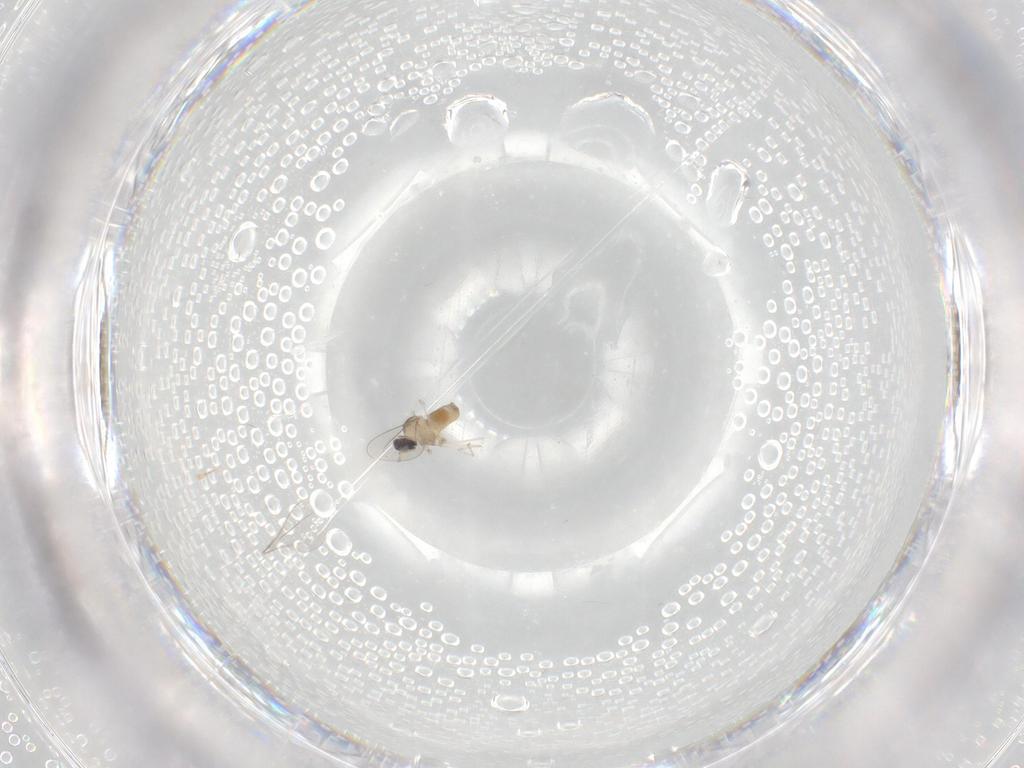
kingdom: Animalia
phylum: Arthropoda
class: Insecta
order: Diptera
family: Cecidomyiidae
